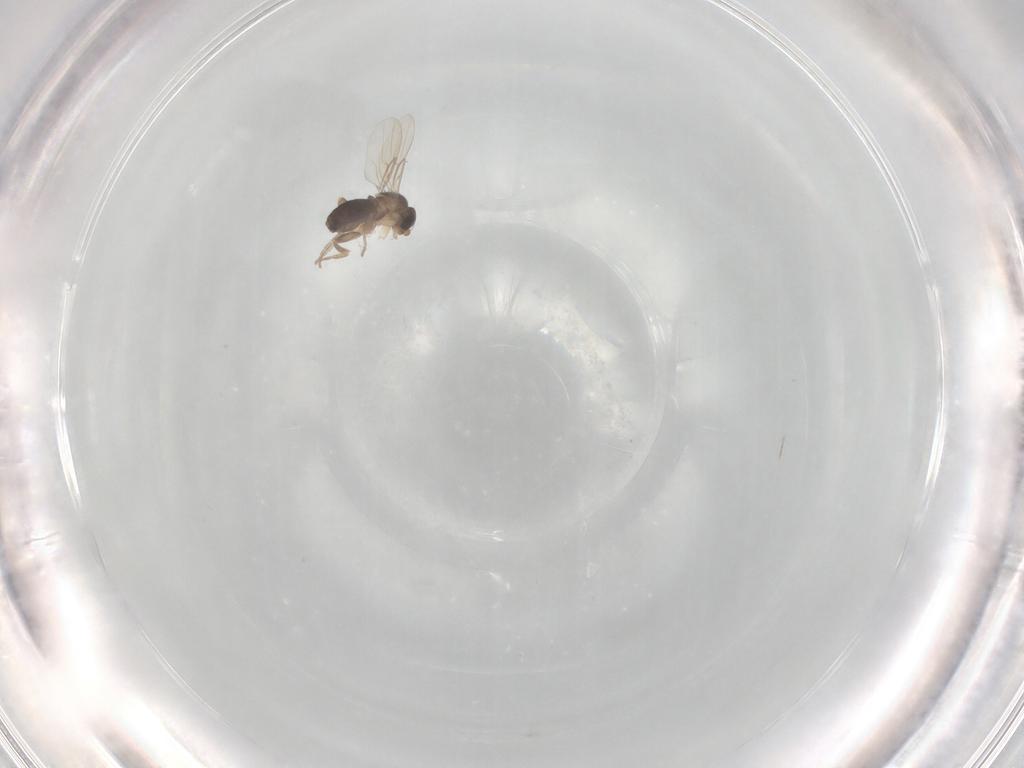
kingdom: Animalia
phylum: Arthropoda
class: Insecta
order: Diptera
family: Phoridae
